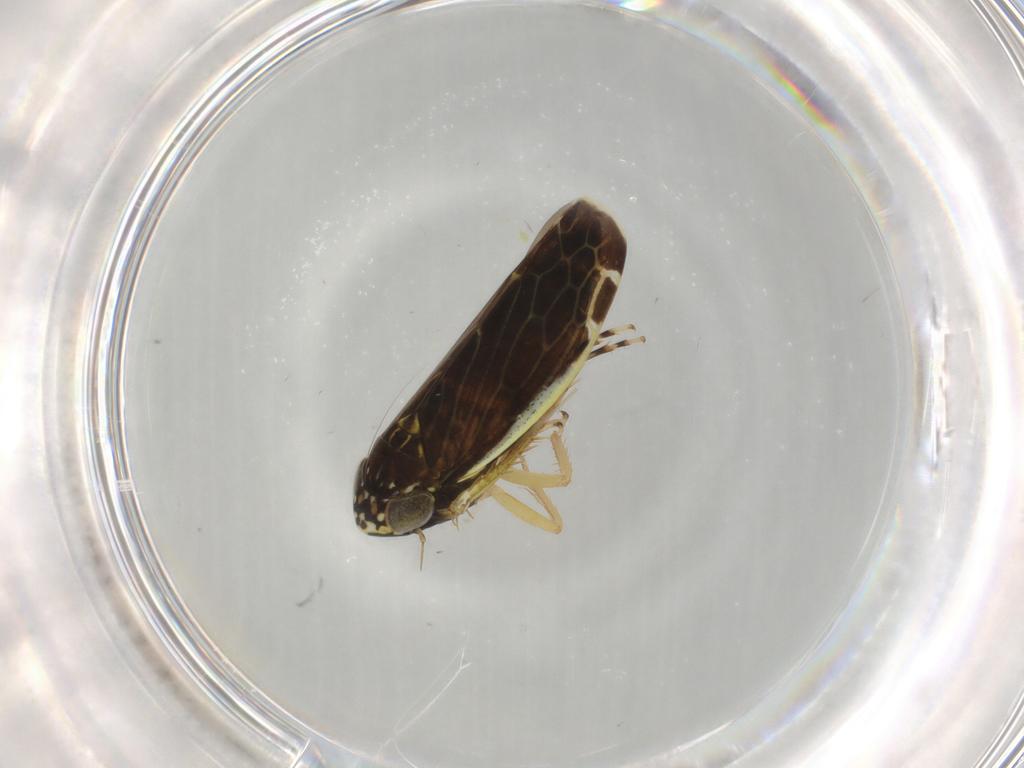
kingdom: Animalia
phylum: Arthropoda
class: Insecta
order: Hemiptera
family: Cicadellidae
